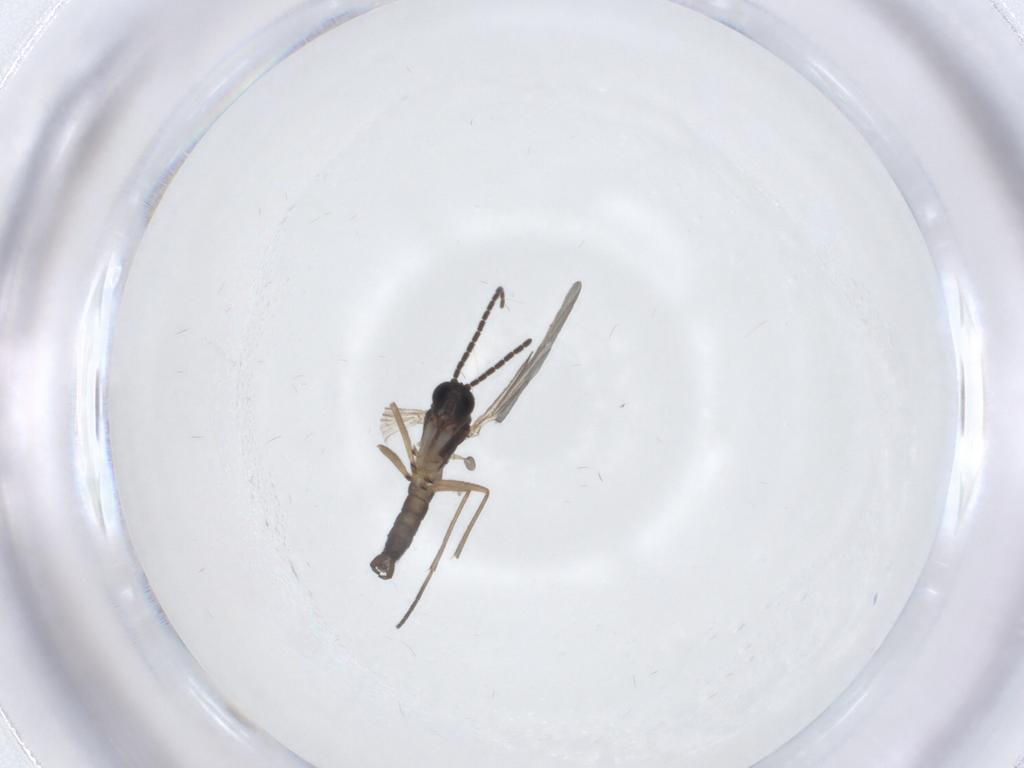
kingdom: Animalia
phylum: Arthropoda
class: Insecta
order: Diptera
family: Sciaridae
